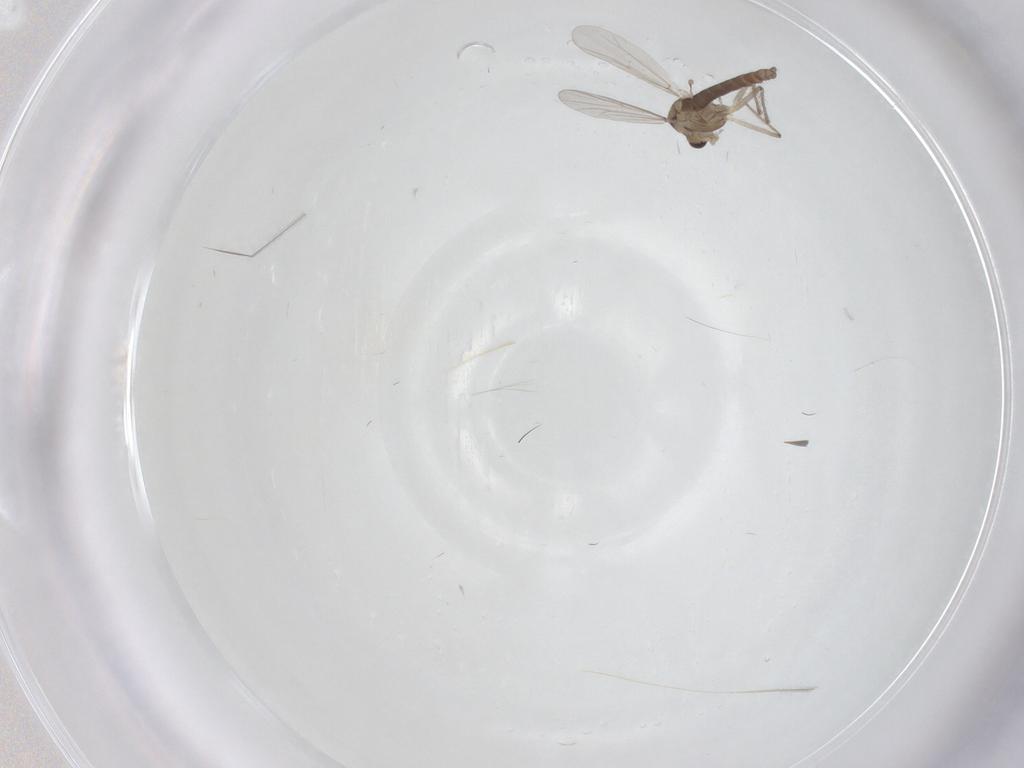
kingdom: Animalia
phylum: Arthropoda
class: Insecta
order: Diptera
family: Chironomidae
